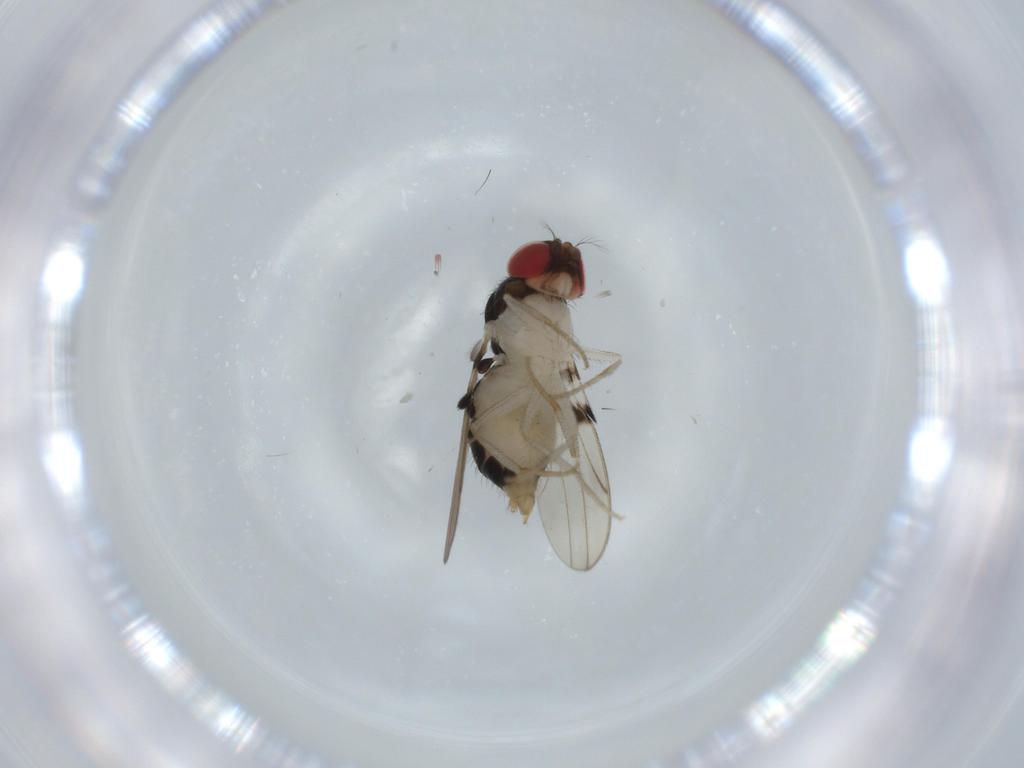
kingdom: Animalia
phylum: Arthropoda
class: Insecta
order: Diptera
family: Drosophilidae
